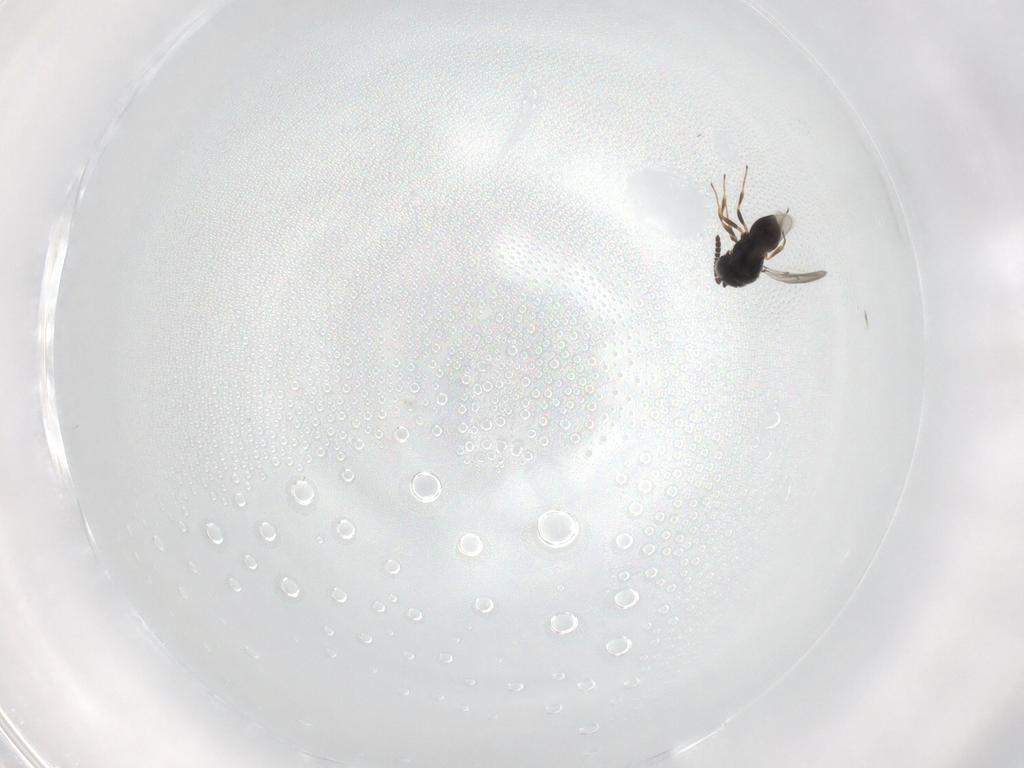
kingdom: Animalia
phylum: Arthropoda
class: Insecta
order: Hymenoptera
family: Scelionidae
